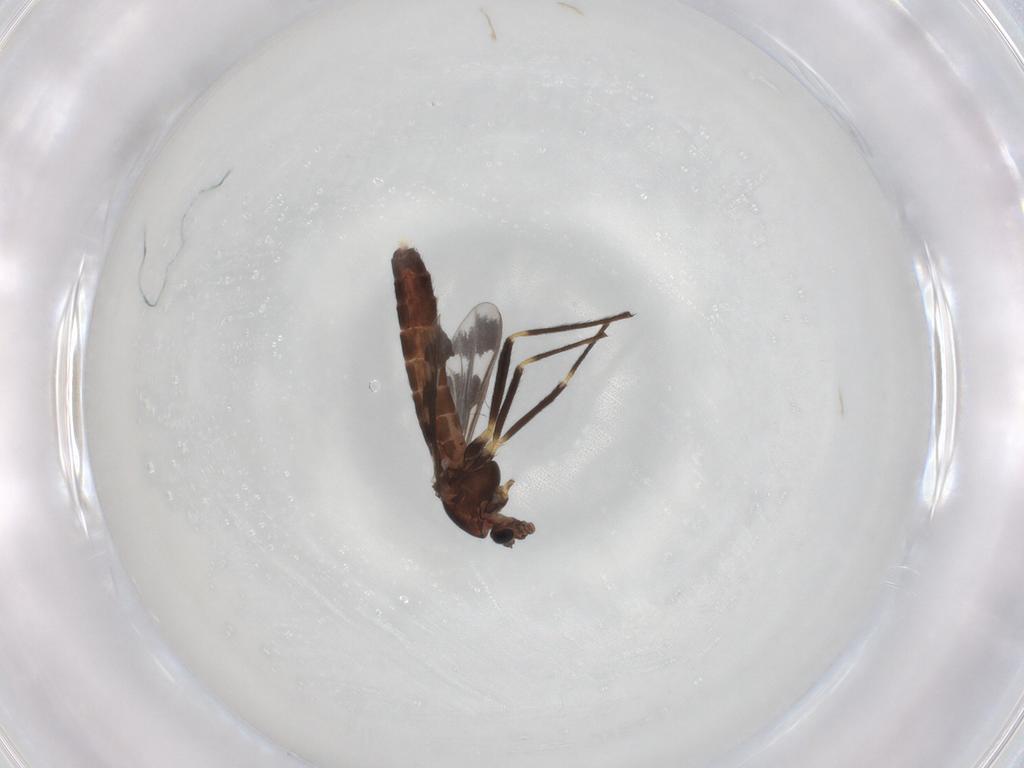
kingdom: Animalia
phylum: Arthropoda
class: Insecta
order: Diptera
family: Chironomidae
